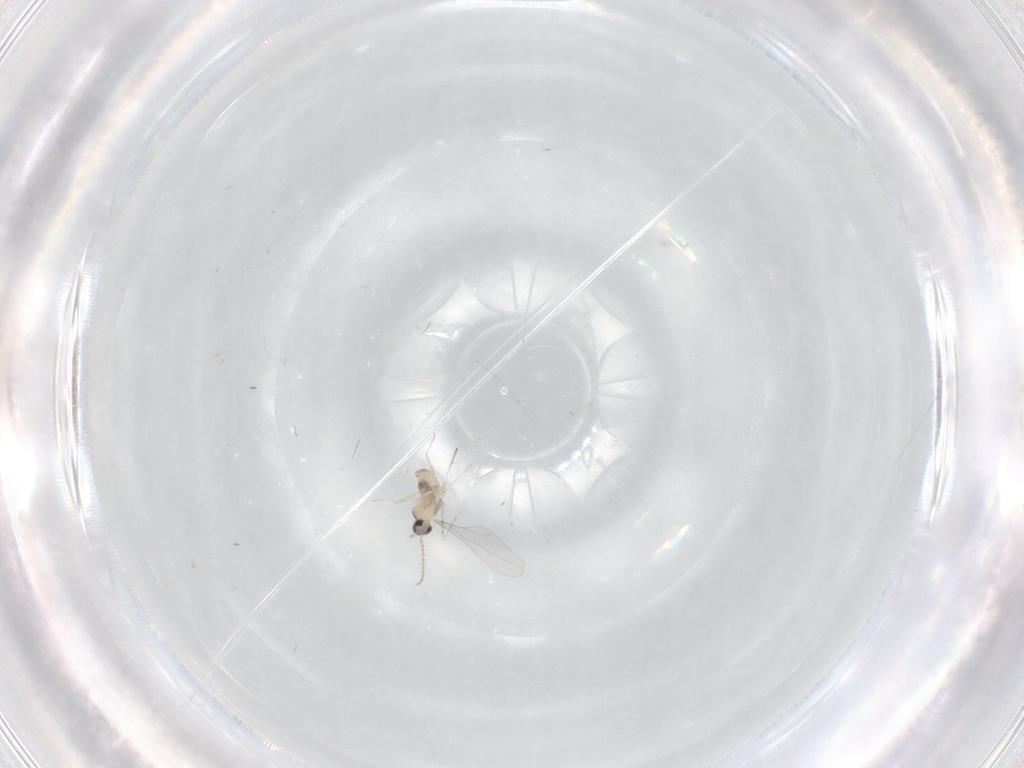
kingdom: Animalia
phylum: Arthropoda
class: Insecta
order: Diptera
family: Cecidomyiidae
